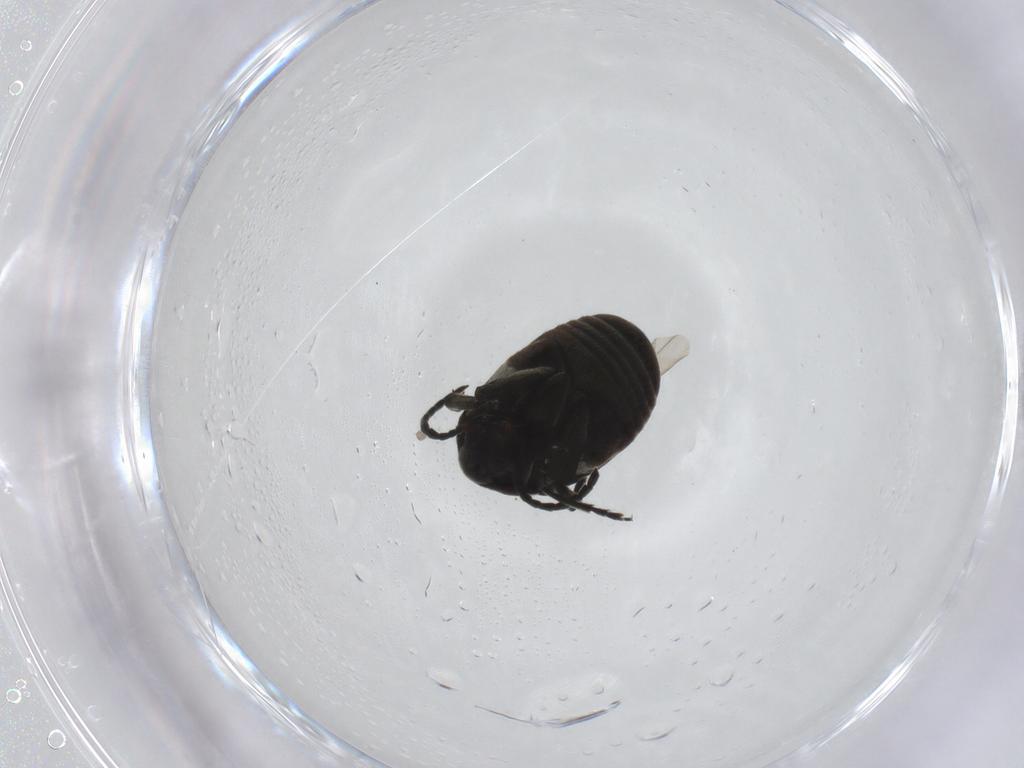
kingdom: Animalia
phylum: Arthropoda
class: Insecta
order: Coleoptera
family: Chrysomelidae
